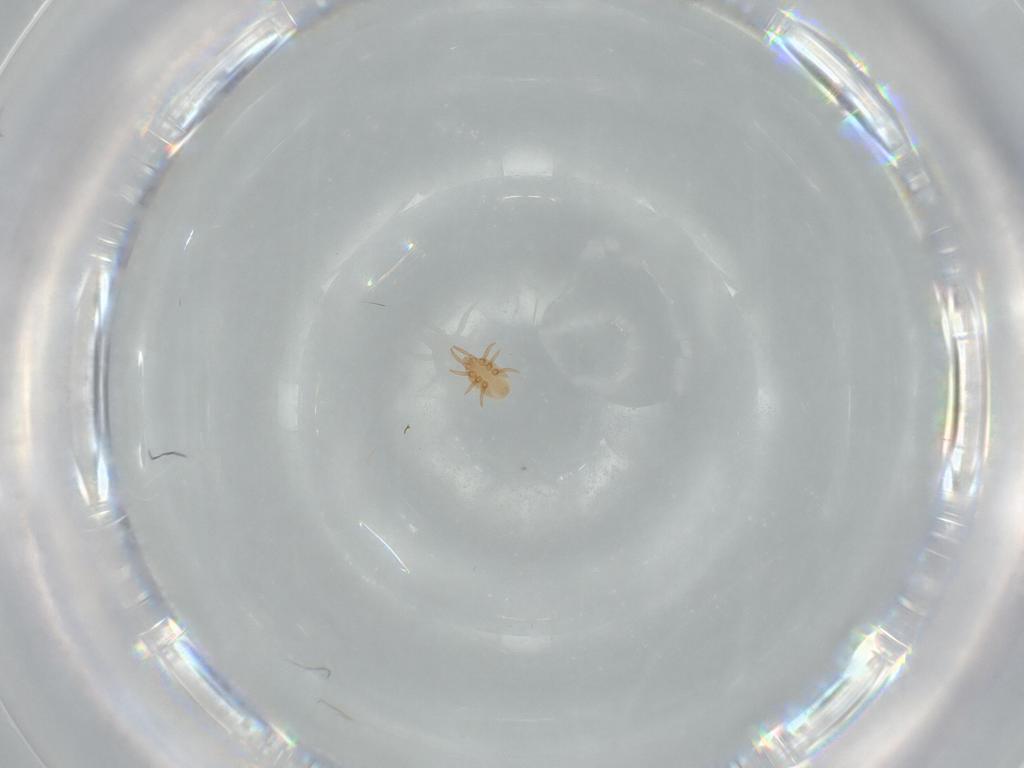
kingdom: Animalia
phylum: Arthropoda
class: Arachnida
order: Mesostigmata
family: Dinychidae
